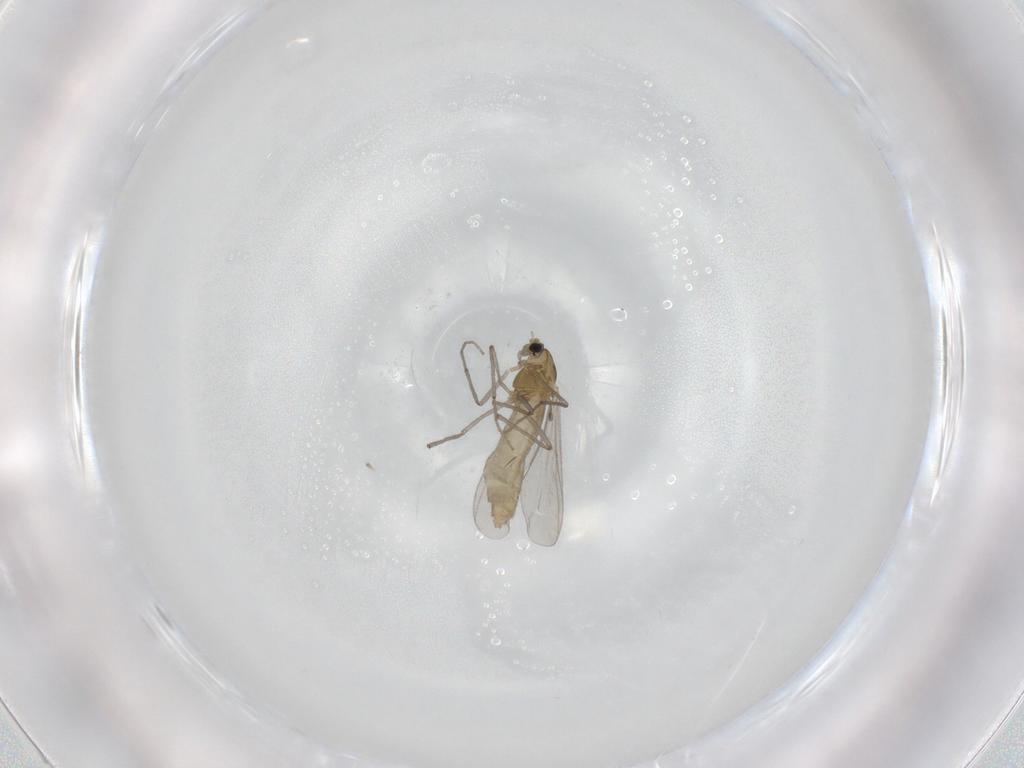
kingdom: Animalia
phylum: Arthropoda
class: Insecta
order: Diptera
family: Chironomidae
